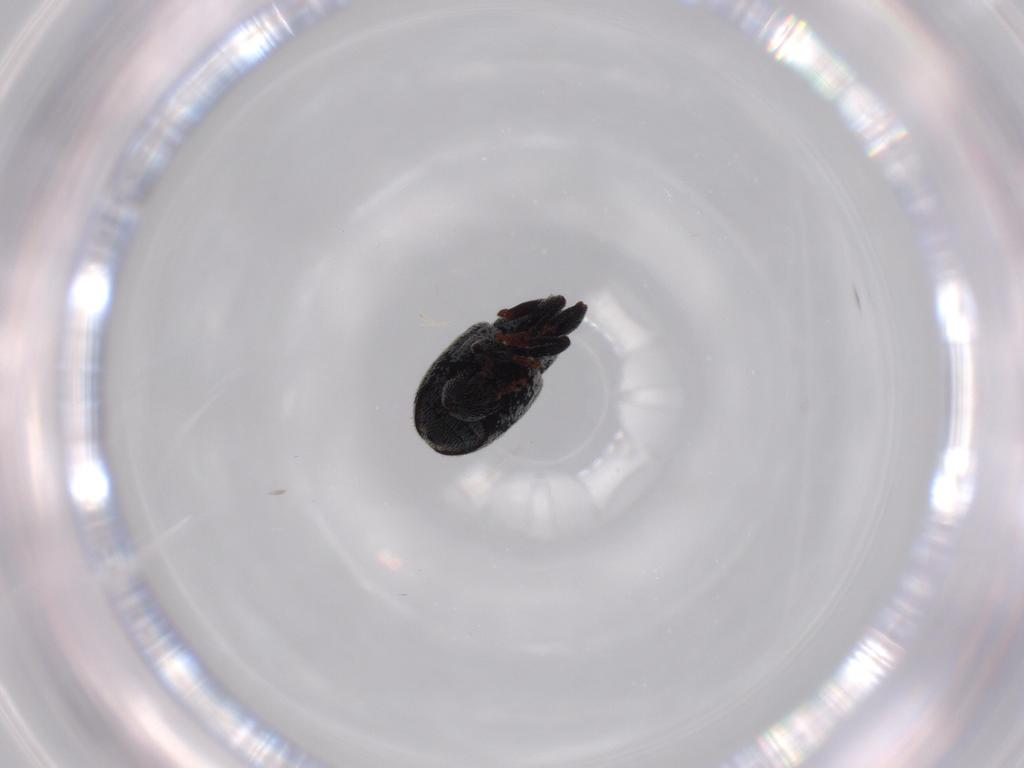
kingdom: Animalia
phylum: Arthropoda
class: Insecta
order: Coleoptera
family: Curculionidae
